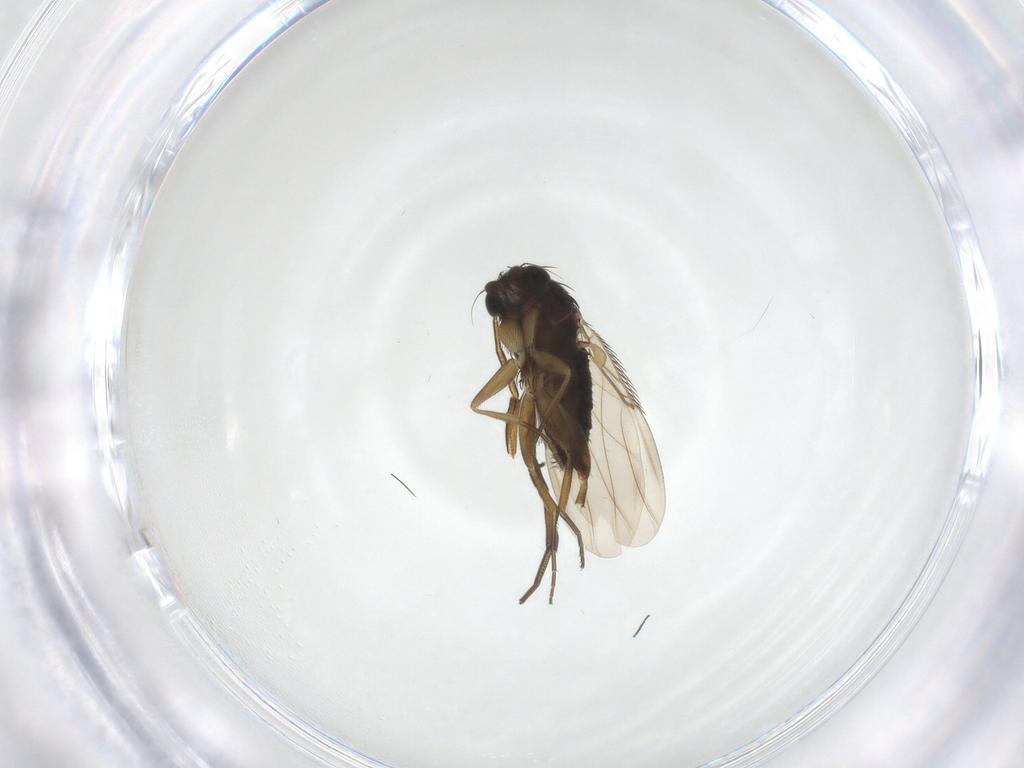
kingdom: Animalia
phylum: Arthropoda
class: Insecta
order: Diptera
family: Phoridae
